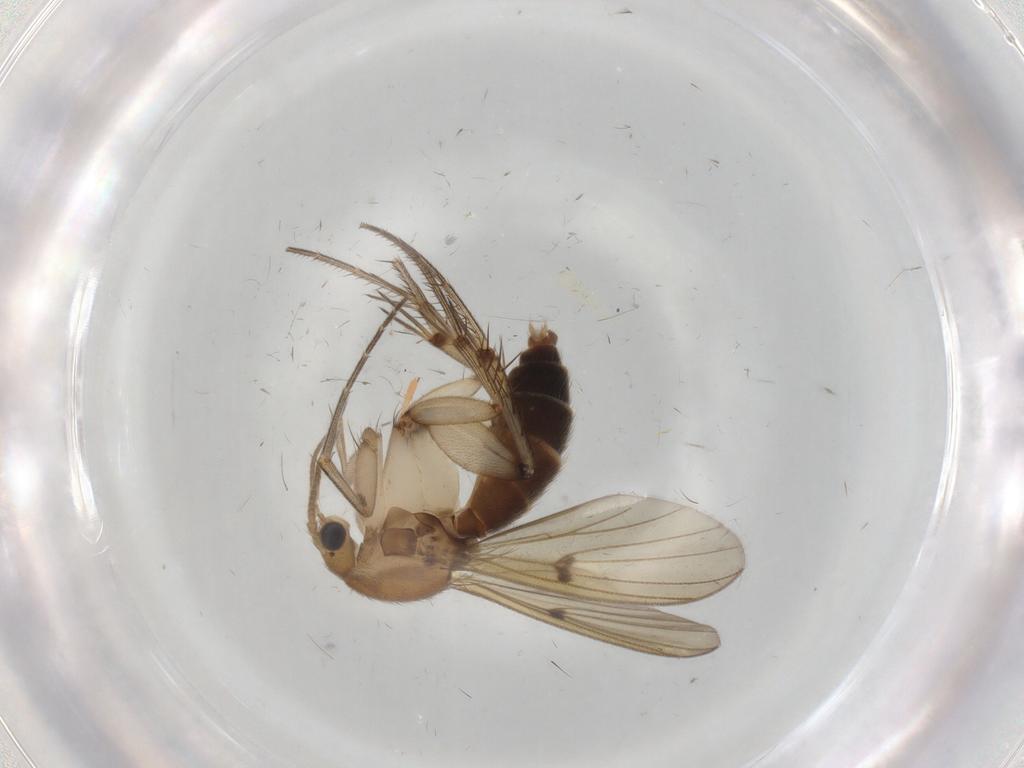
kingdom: Animalia
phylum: Arthropoda
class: Insecta
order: Diptera
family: Mycetophilidae
